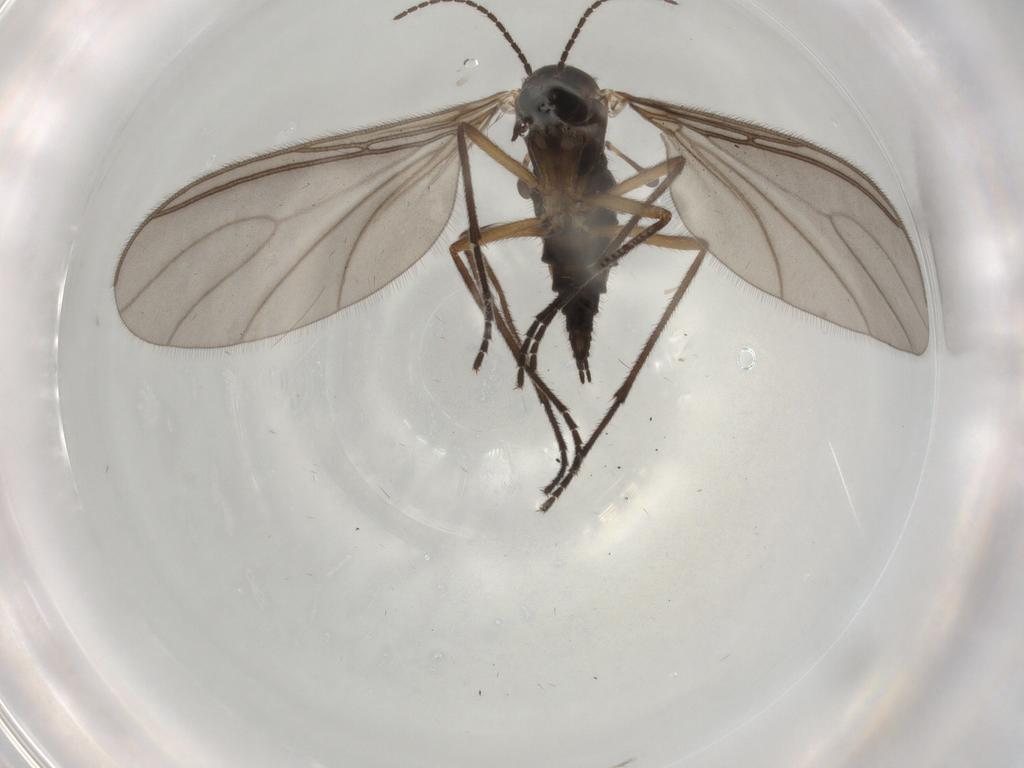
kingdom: Animalia
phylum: Arthropoda
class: Insecta
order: Diptera
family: Sciaridae
